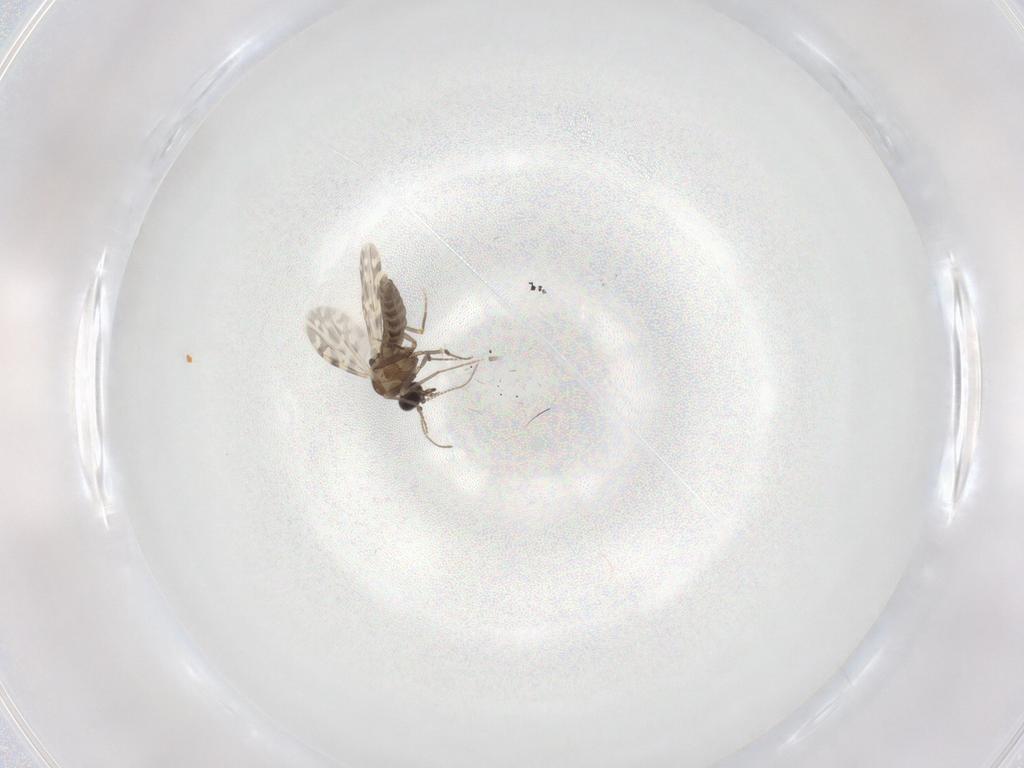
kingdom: Animalia
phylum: Arthropoda
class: Insecta
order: Diptera
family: Ceratopogonidae
